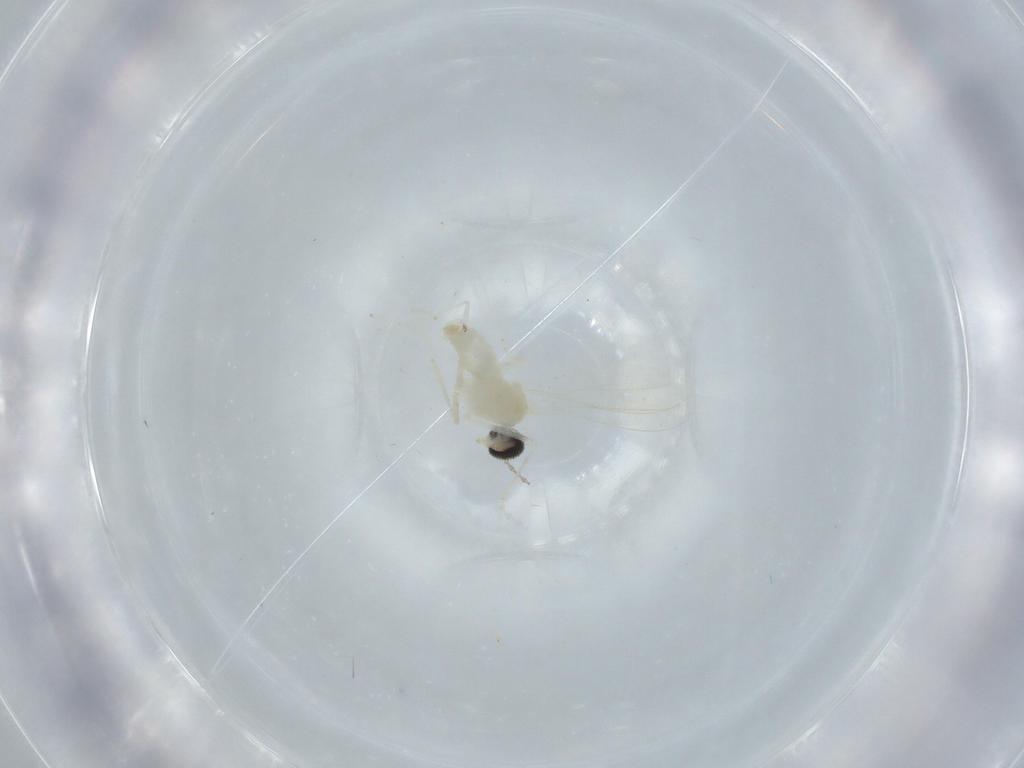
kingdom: Animalia
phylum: Arthropoda
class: Insecta
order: Diptera
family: Cecidomyiidae
